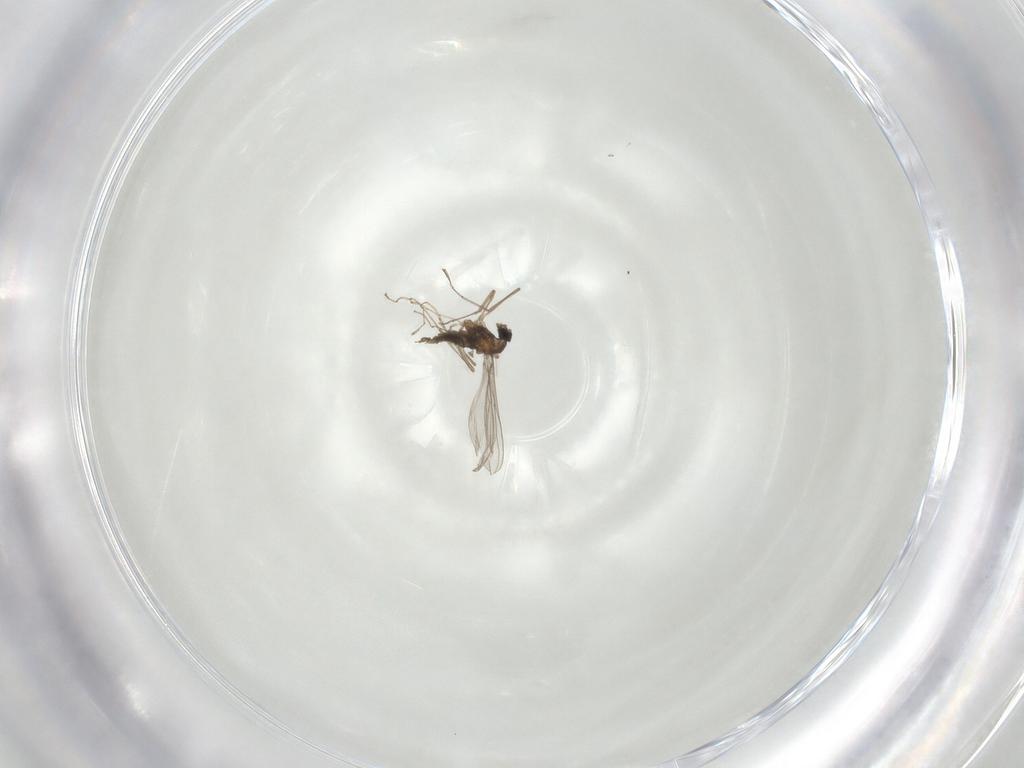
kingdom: Animalia
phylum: Arthropoda
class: Insecta
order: Diptera
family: Cecidomyiidae
